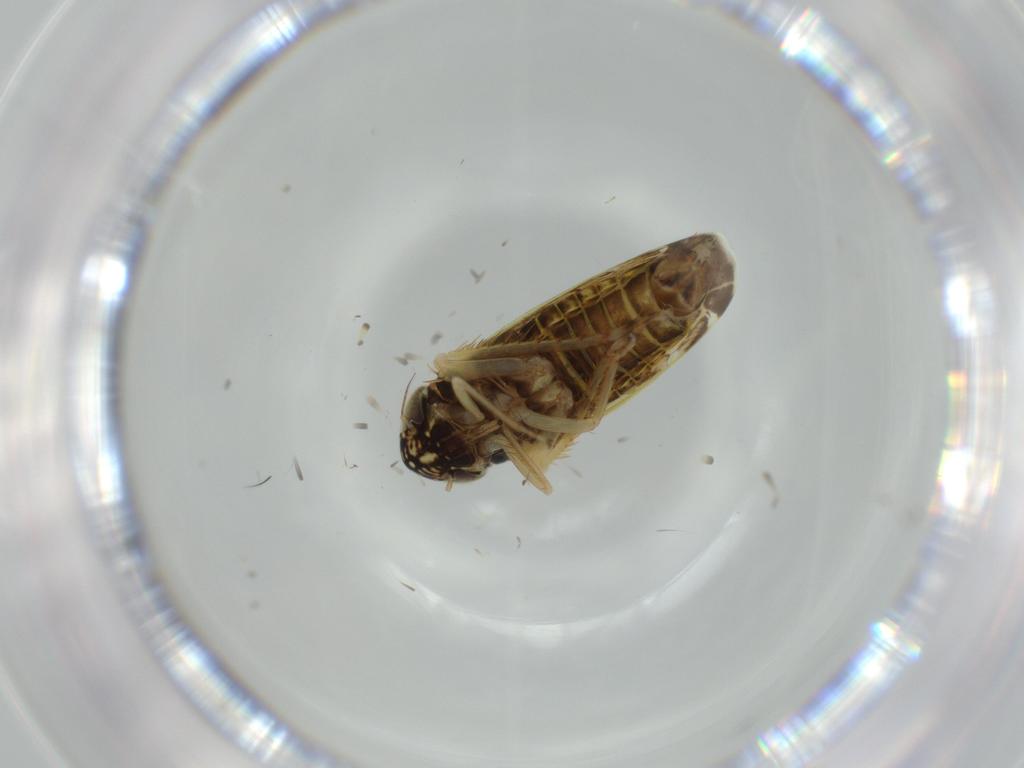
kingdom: Animalia
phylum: Arthropoda
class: Insecta
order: Hemiptera
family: Cicadellidae
